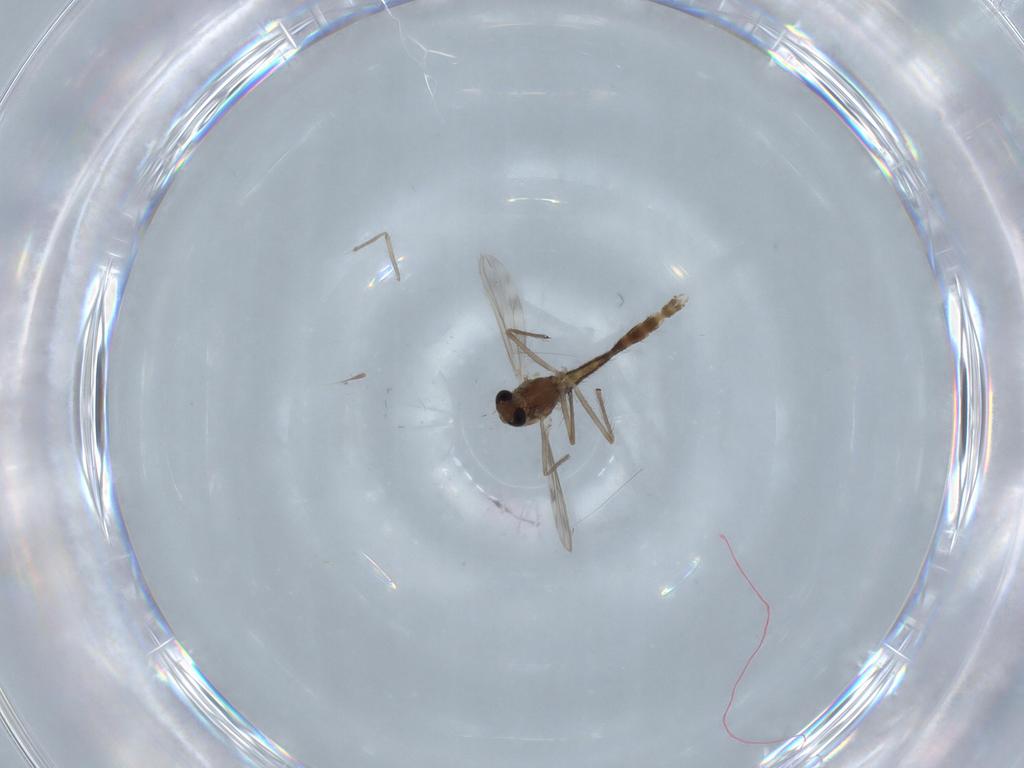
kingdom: Animalia
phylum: Arthropoda
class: Insecta
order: Diptera
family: Chironomidae
